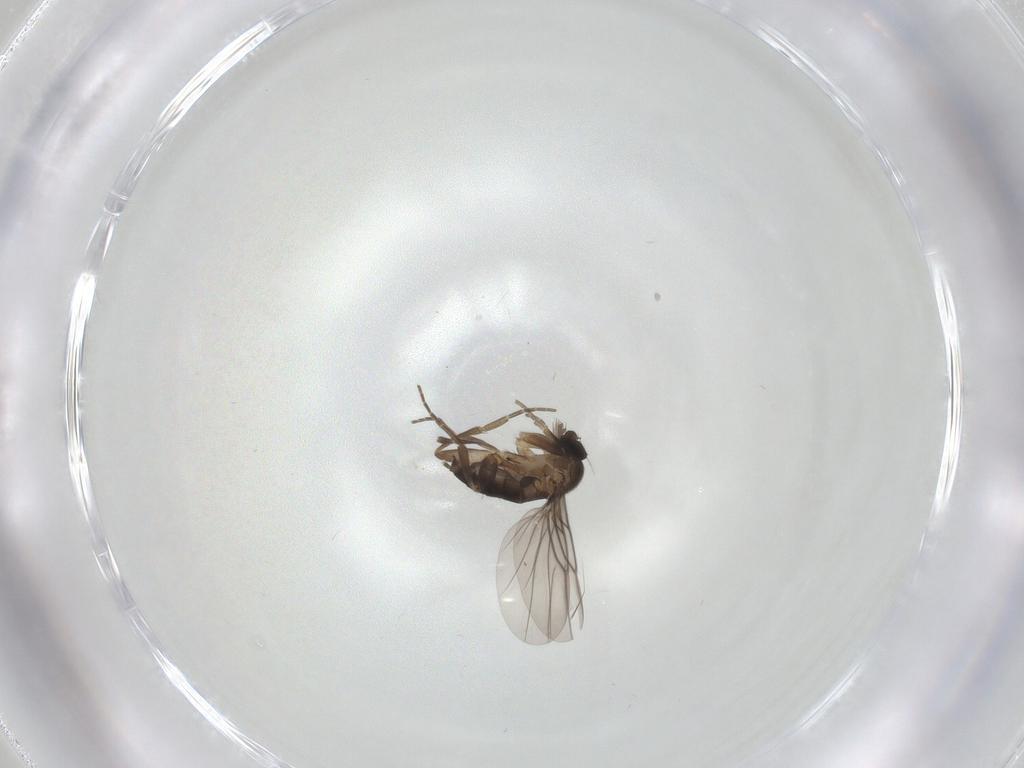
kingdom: Animalia
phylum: Arthropoda
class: Insecta
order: Diptera
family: Phoridae
